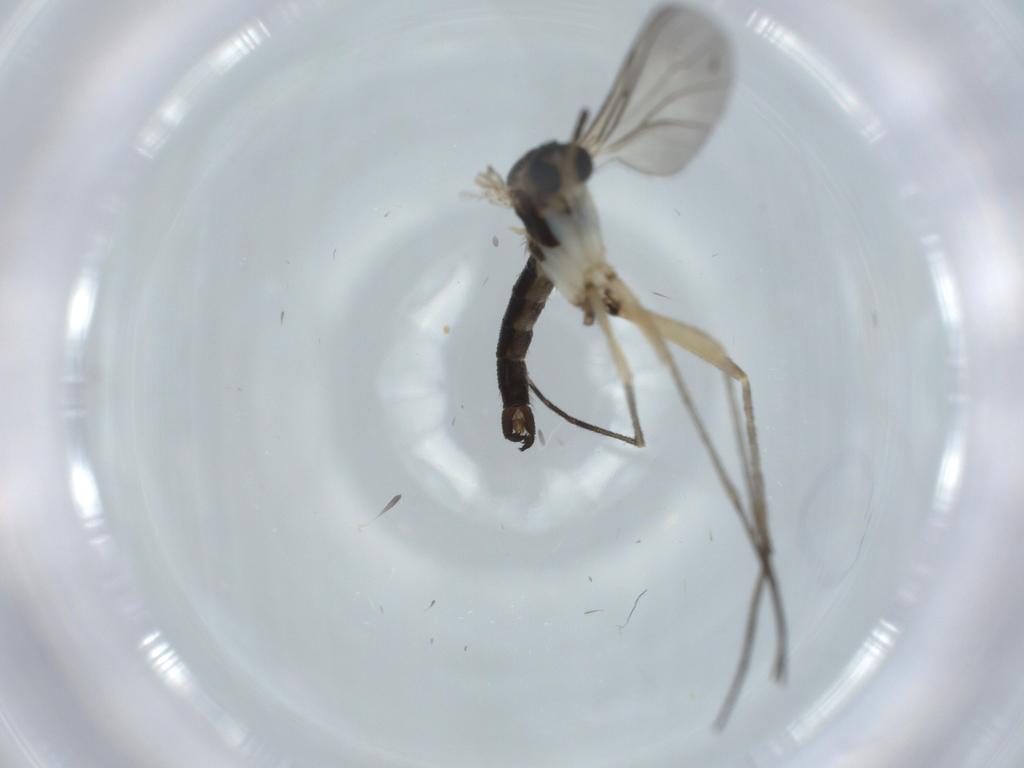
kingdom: Animalia
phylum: Arthropoda
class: Insecta
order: Diptera
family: Sciaridae
